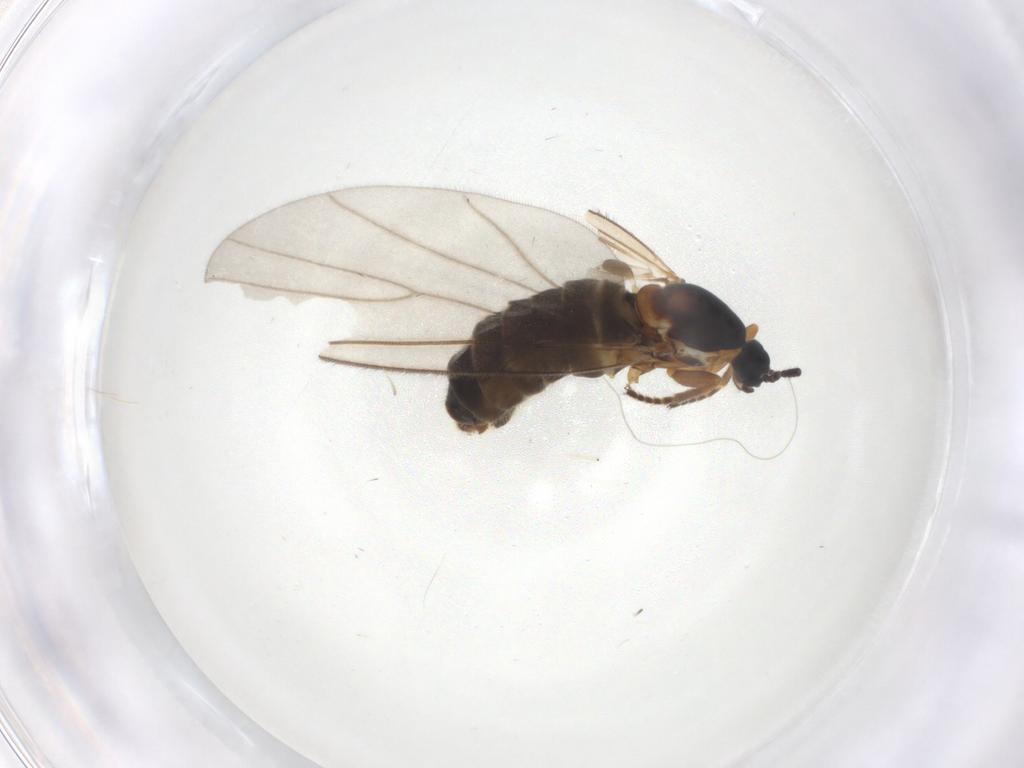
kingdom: Animalia
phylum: Arthropoda
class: Insecta
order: Diptera
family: Scatopsidae
